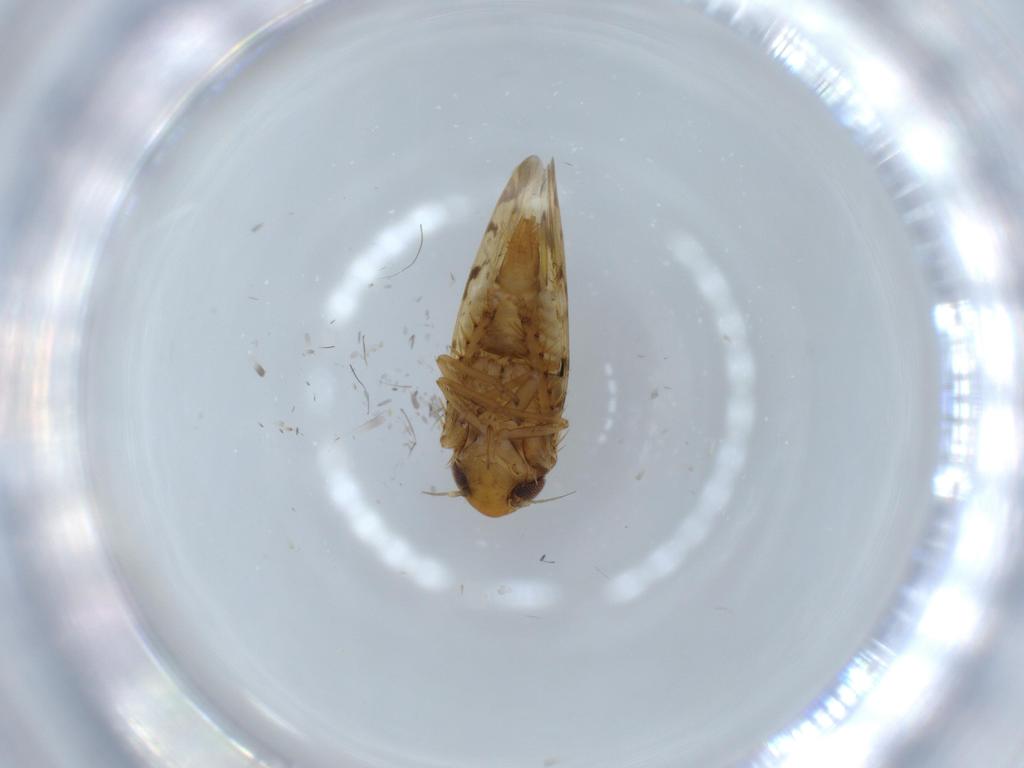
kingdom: Animalia
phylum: Arthropoda
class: Insecta
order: Hemiptera
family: Cicadellidae
